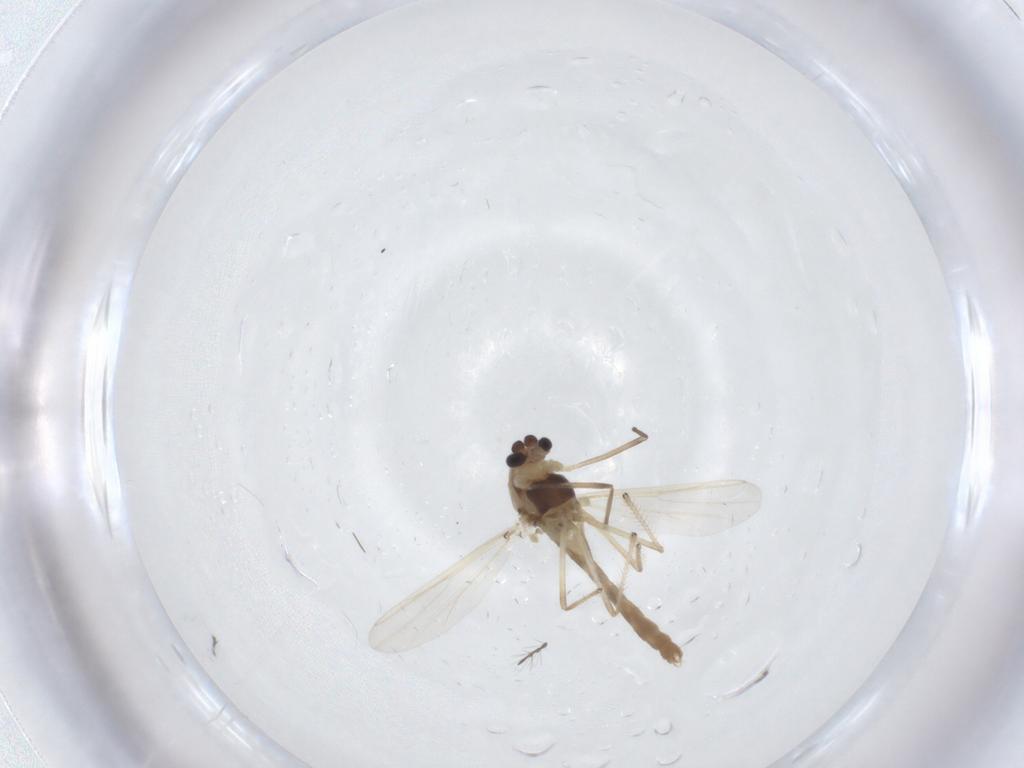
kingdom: Animalia
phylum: Arthropoda
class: Insecta
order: Diptera
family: Chironomidae
